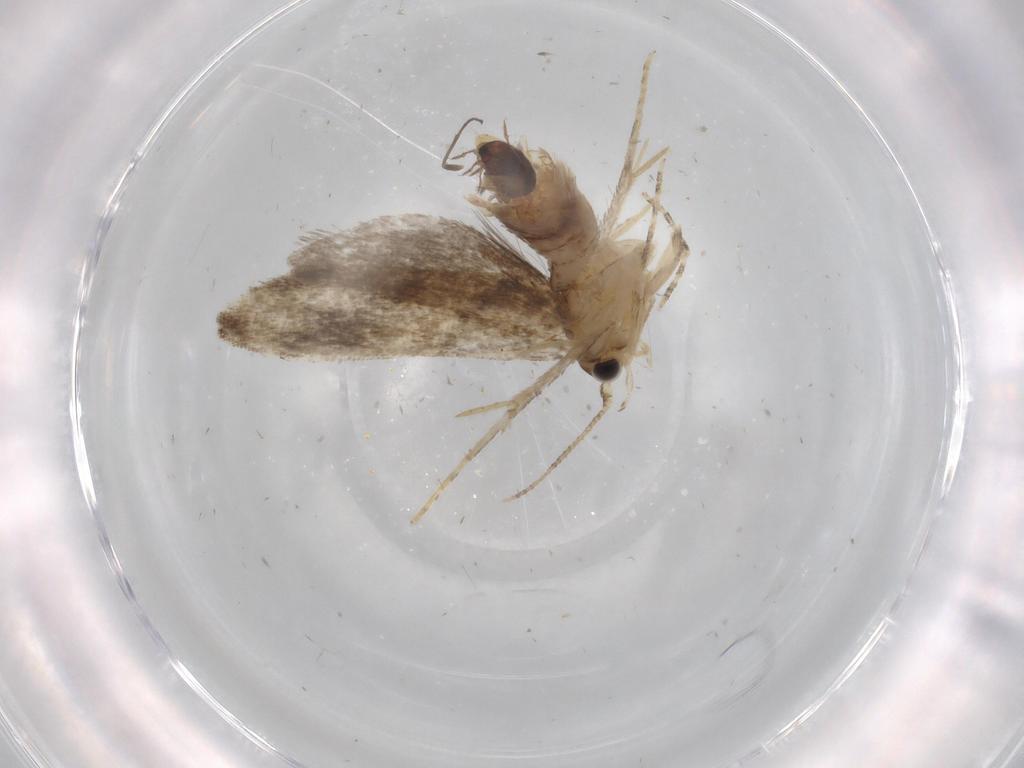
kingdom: Animalia
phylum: Arthropoda
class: Insecta
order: Lepidoptera
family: Tineidae
